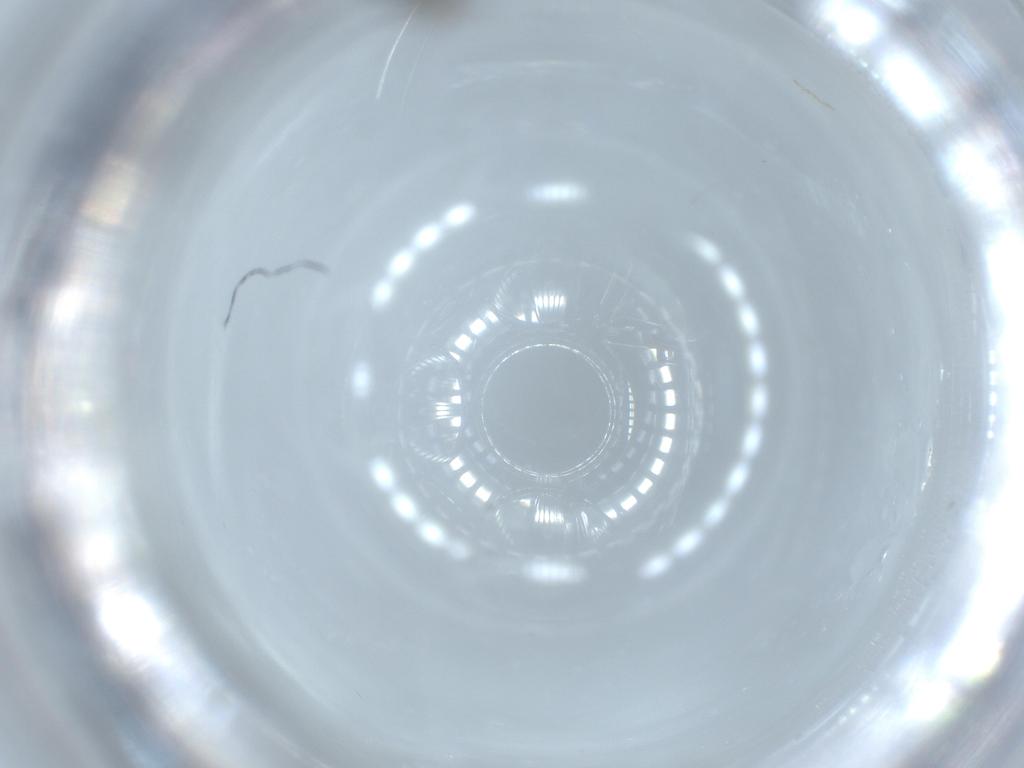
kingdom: Animalia
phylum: Arthropoda
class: Insecta
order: Diptera
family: Sciaridae
